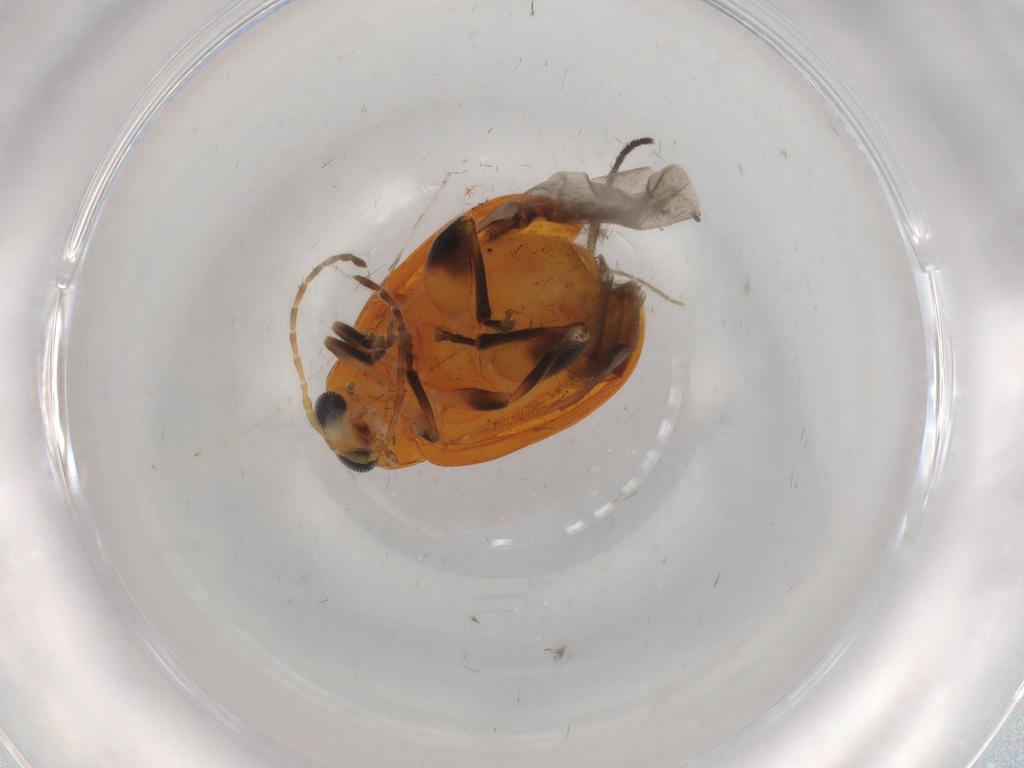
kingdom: Animalia
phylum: Arthropoda
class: Insecta
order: Coleoptera
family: Chrysomelidae
